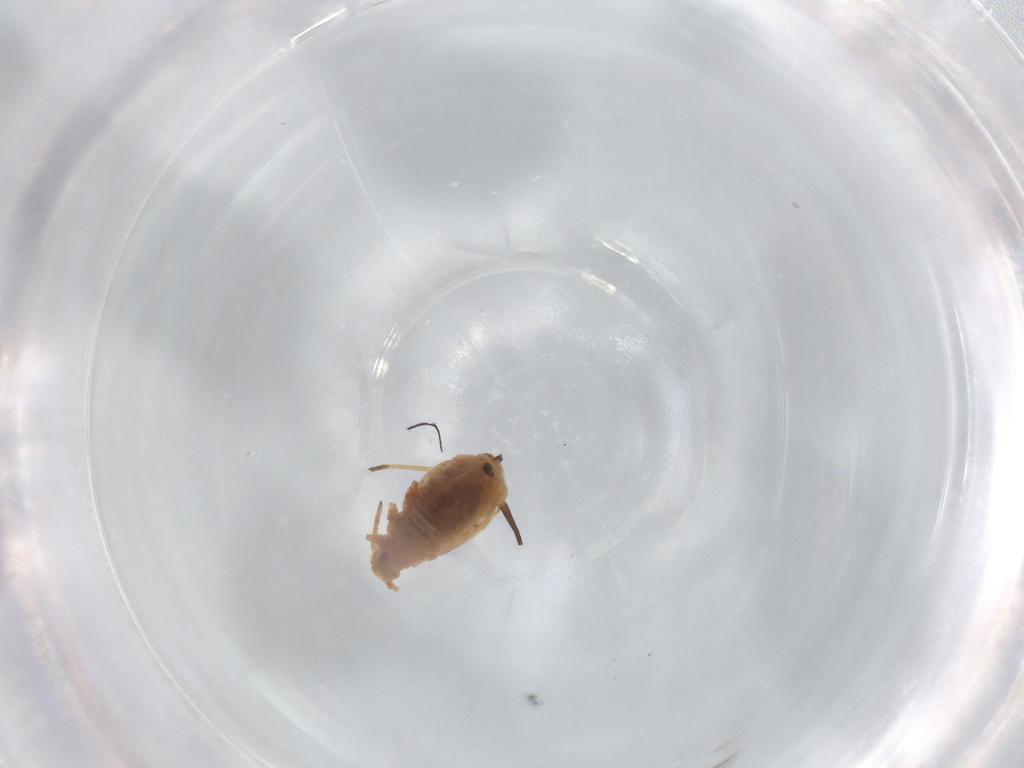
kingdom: Animalia
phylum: Arthropoda
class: Insecta
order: Hemiptera
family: Aphididae
